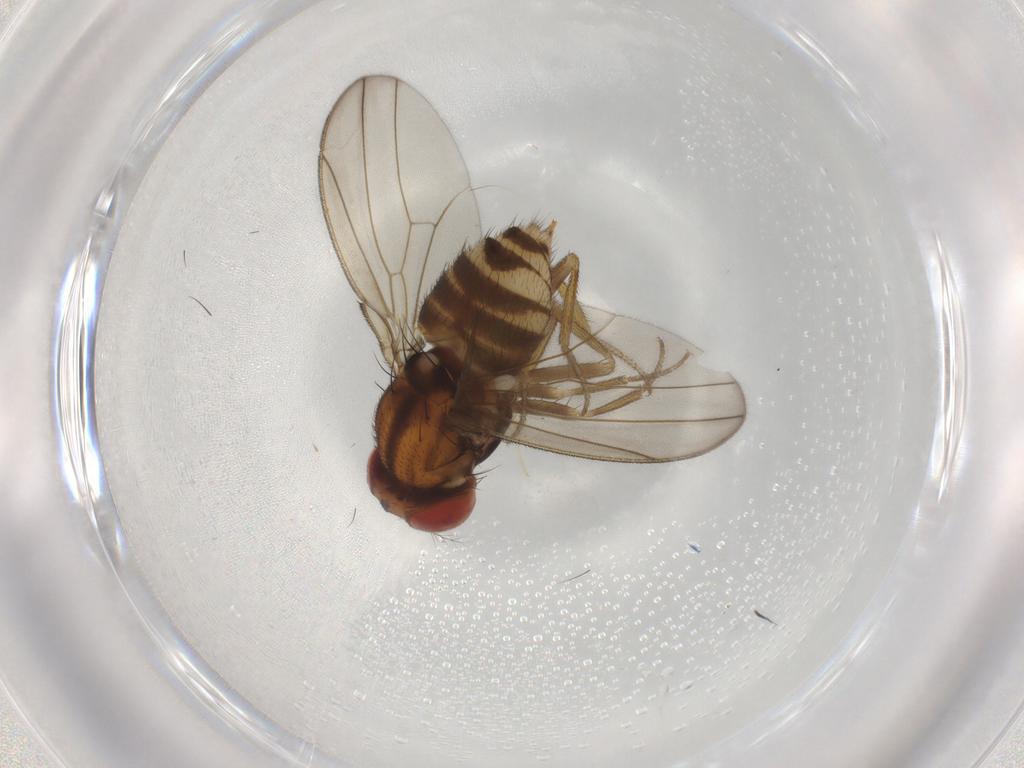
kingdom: Animalia
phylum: Arthropoda
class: Insecta
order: Diptera
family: Drosophilidae
